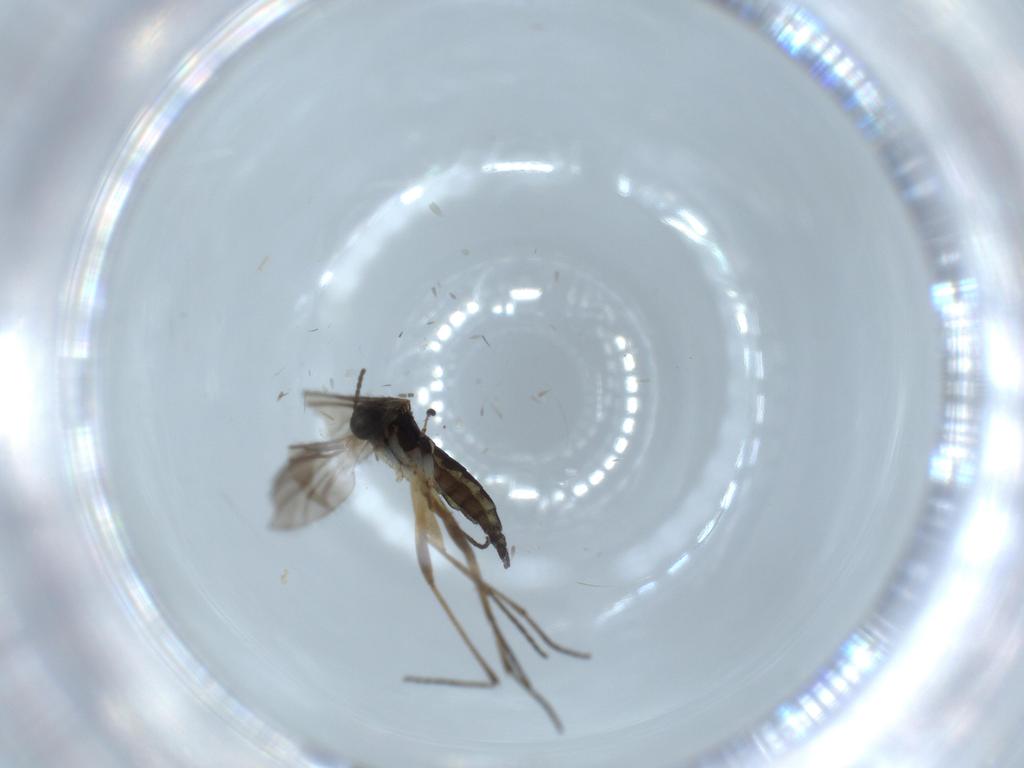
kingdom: Animalia
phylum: Arthropoda
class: Insecta
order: Diptera
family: Sciaridae
